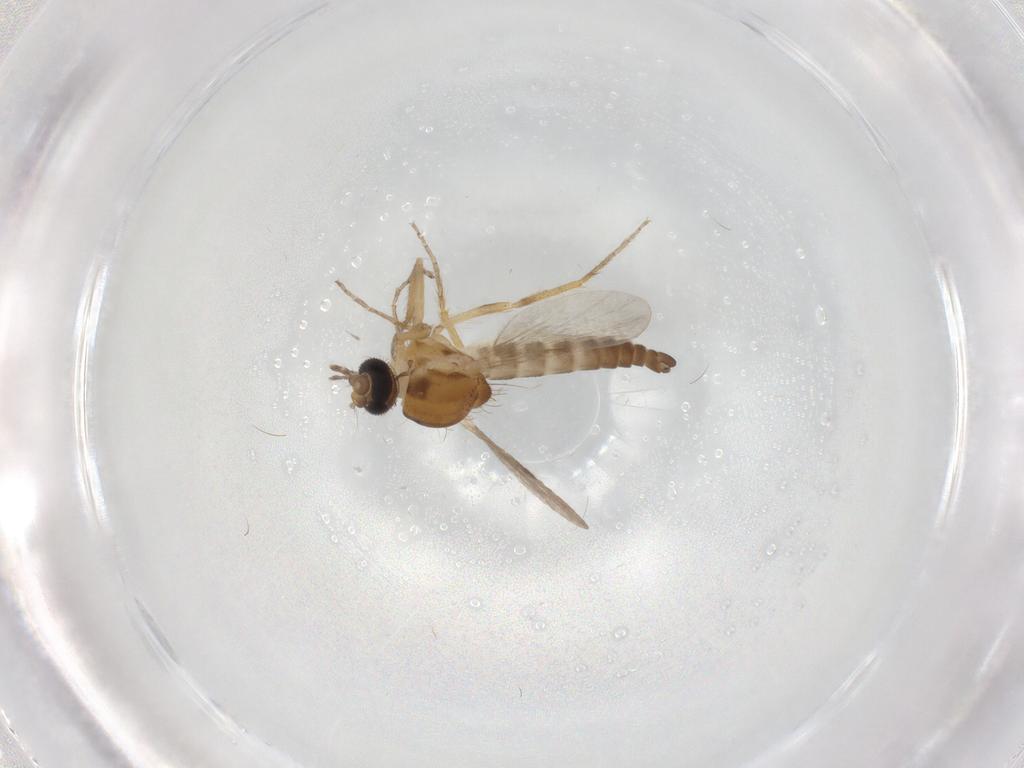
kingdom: Animalia
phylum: Arthropoda
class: Insecta
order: Diptera
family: Ceratopogonidae
